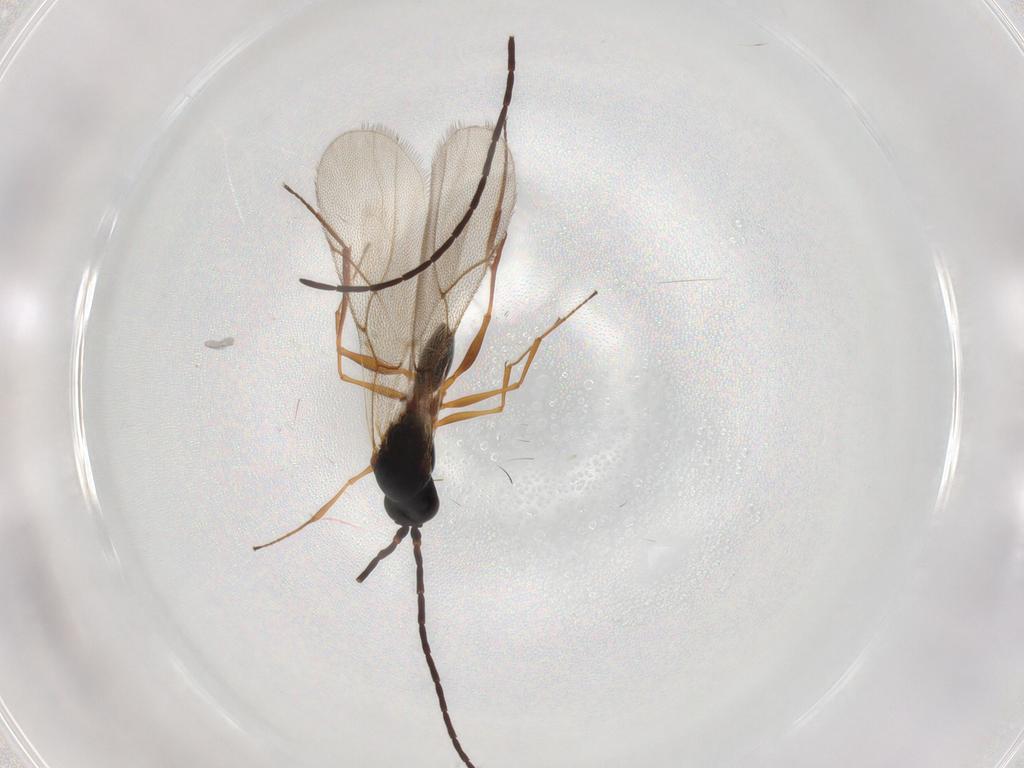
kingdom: Animalia
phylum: Arthropoda
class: Insecta
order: Hymenoptera
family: Figitidae
